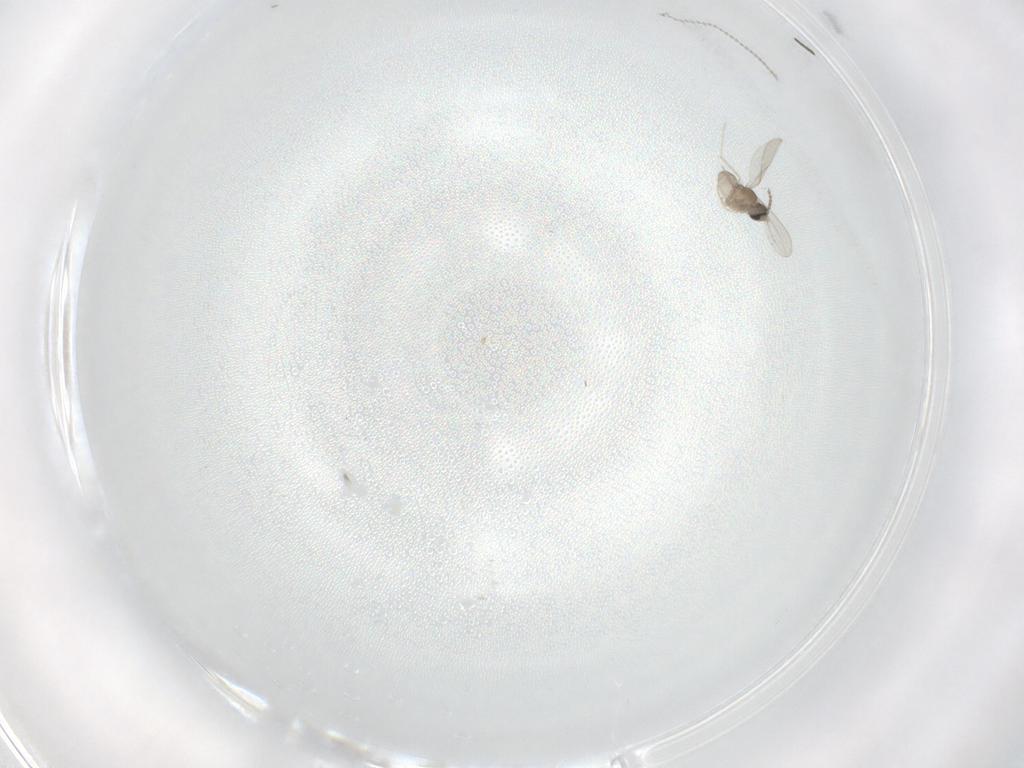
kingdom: Animalia
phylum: Arthropoda
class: Insecta
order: Diptera
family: Cecidomyiidae
